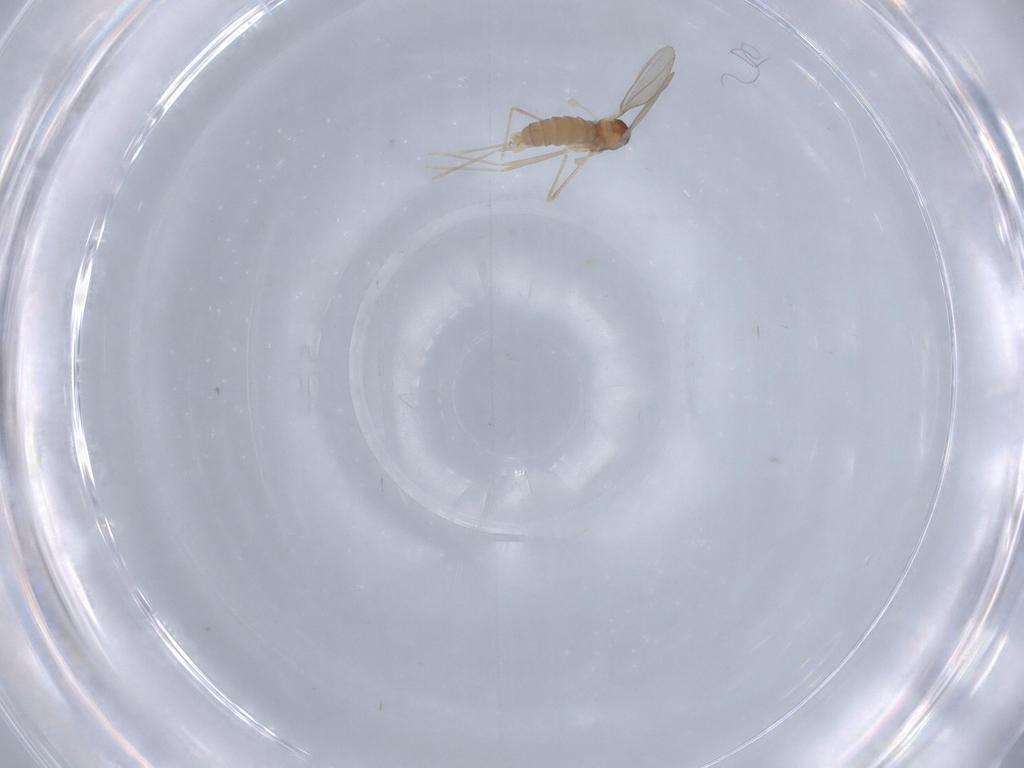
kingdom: Animalia
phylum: Arthropoda
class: Insecta
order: Diptera
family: Cecidomyiidae
